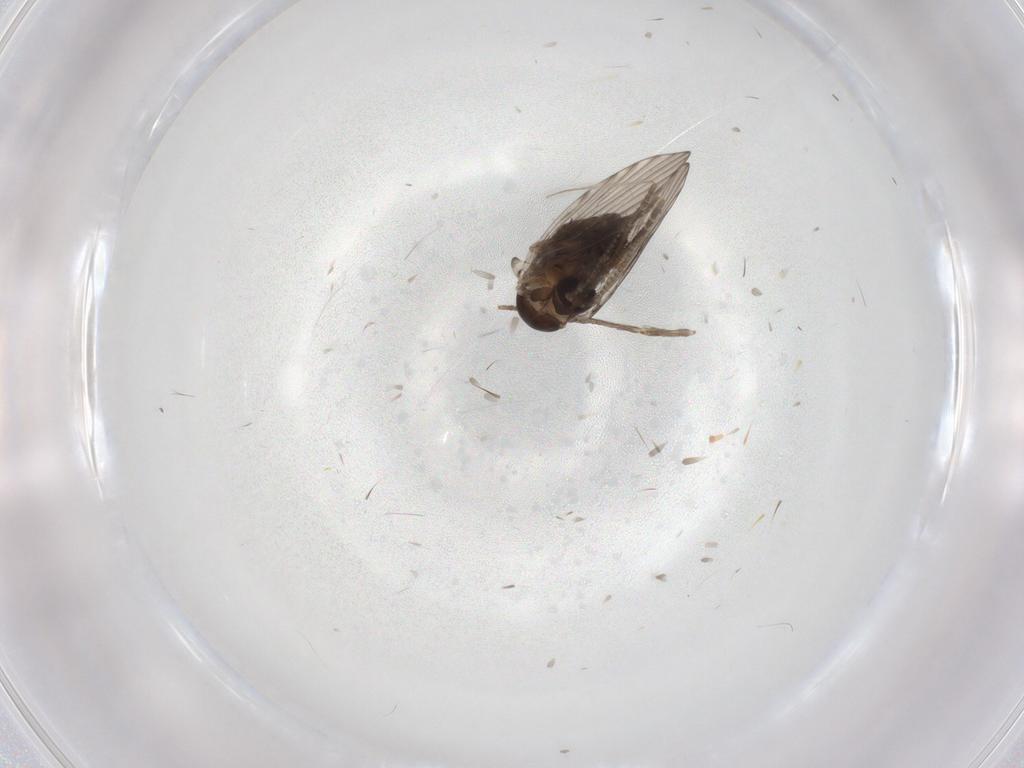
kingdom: Animalia
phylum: Arthropoda
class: Insecta
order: Diptera
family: Psychodidae
